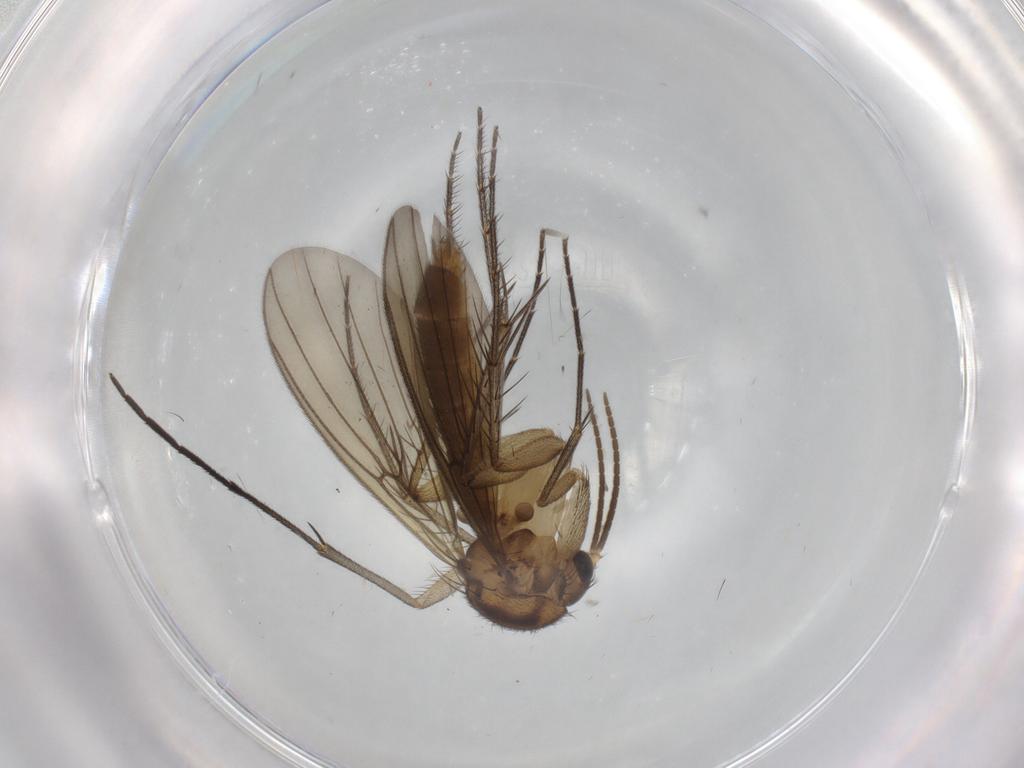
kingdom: Animalia
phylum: Arthropoda
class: Insecta
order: Diptera
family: Mycetophilidae
